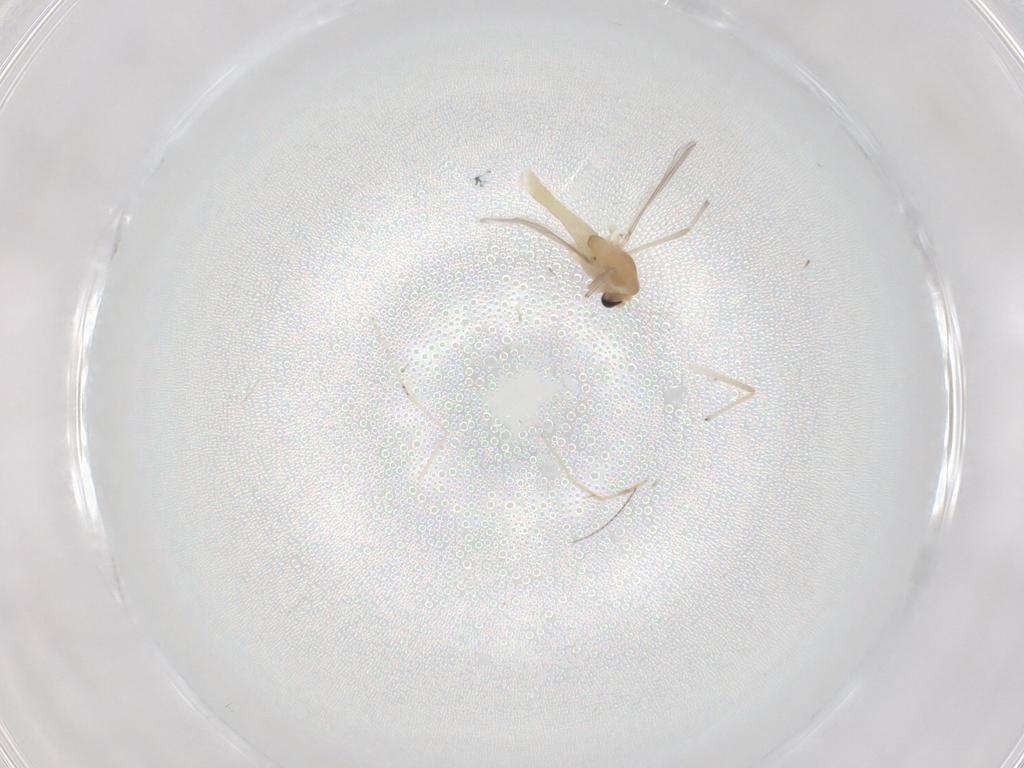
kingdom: Animalia
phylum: Arthropoda
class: Insecta
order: Diptera
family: Chironomidae
